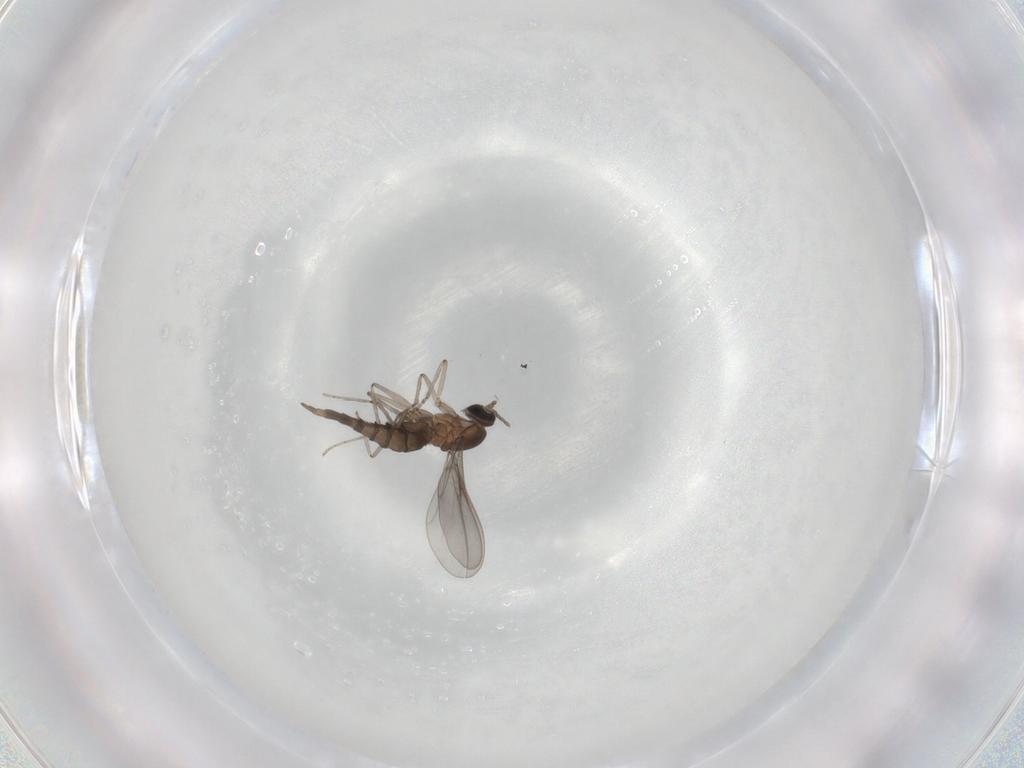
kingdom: Animalia
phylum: Arthropoda
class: Insecta
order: Diptera
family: Cecidomyiidae
